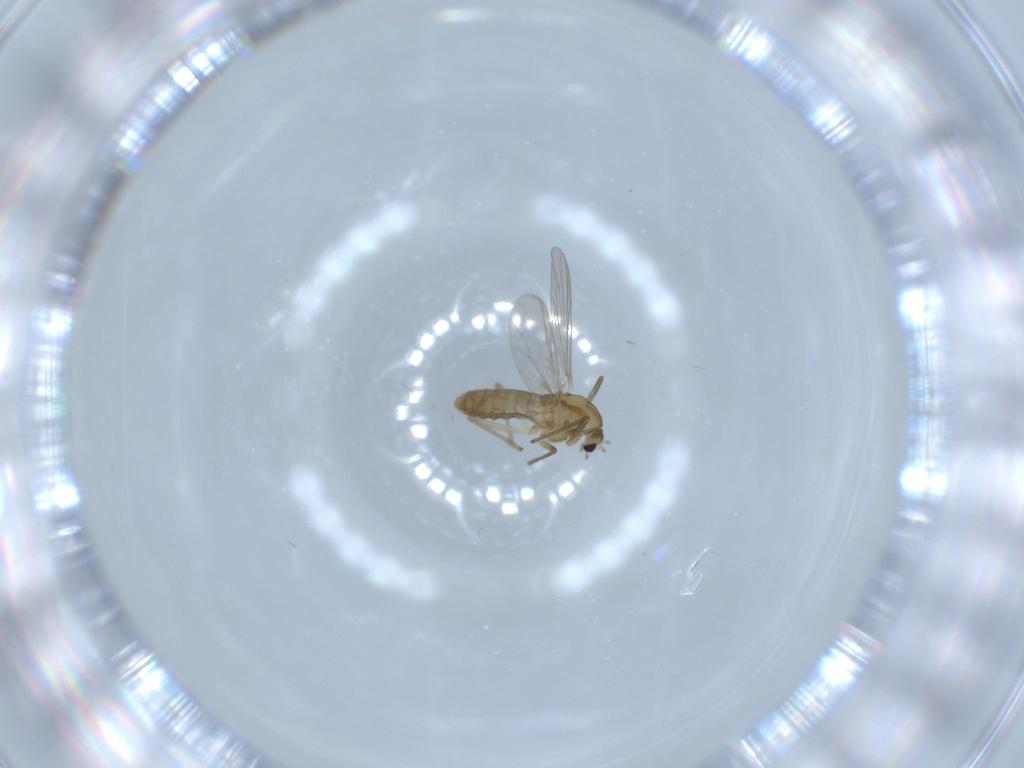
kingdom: Animalia
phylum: Arthropoda
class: Insecta
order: Diptera
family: Chironomidae
